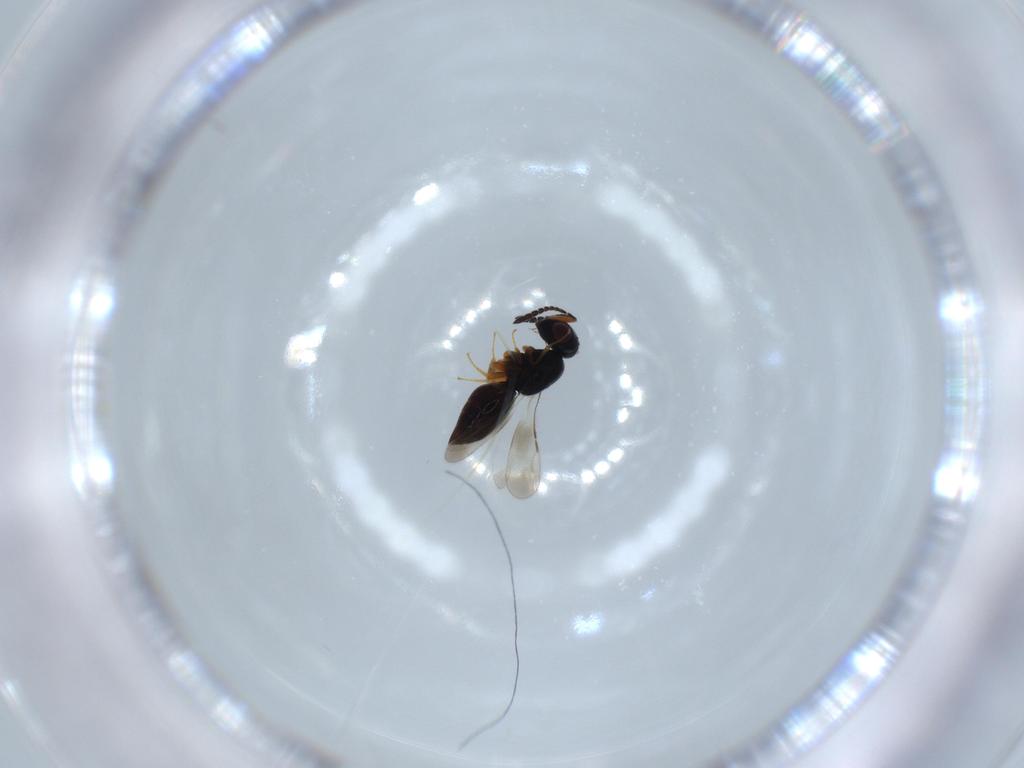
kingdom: Animalia
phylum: Arthropoda
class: Insecta
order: Hymenoptera
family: Ceraphronidae
